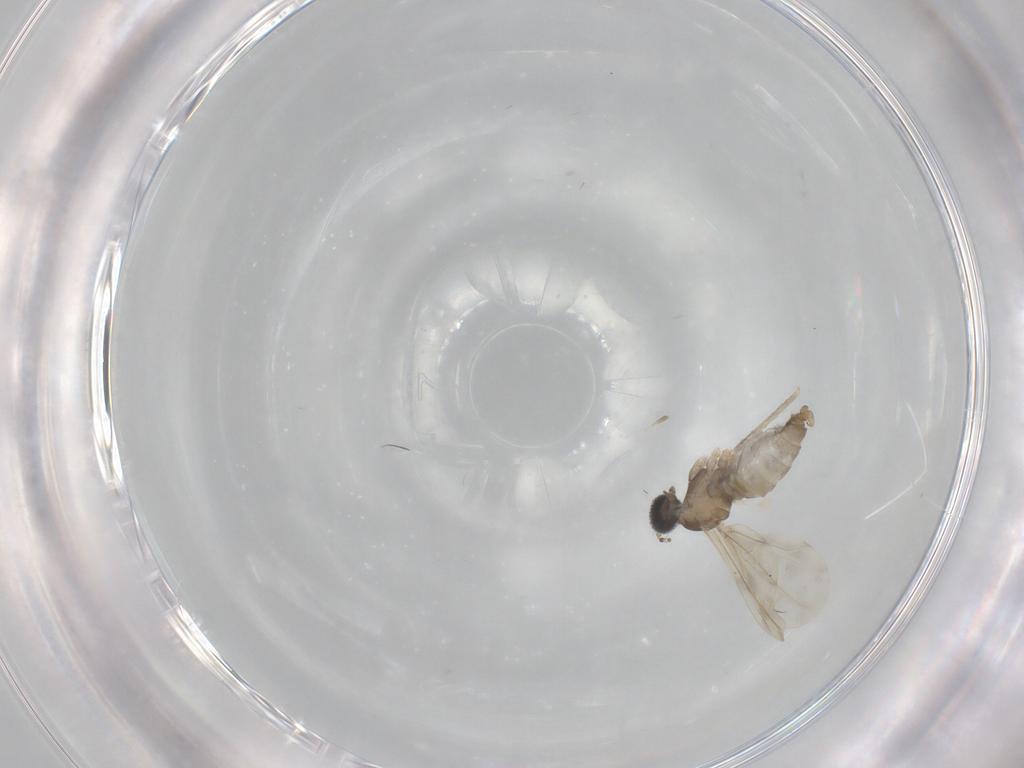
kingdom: Animalia
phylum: Arthropoda
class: Insecta
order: Diptera
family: Cecidomyiidae
